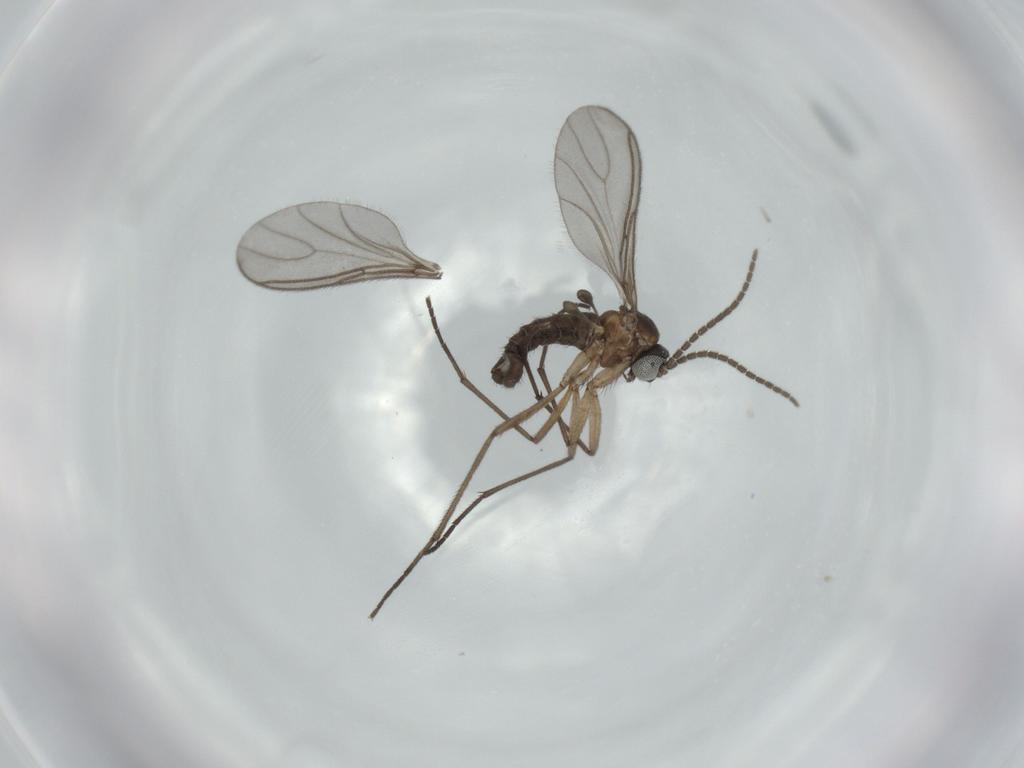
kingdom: Animalia
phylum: Arthropoda
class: Insecta
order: Diptera
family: Sciaridae
